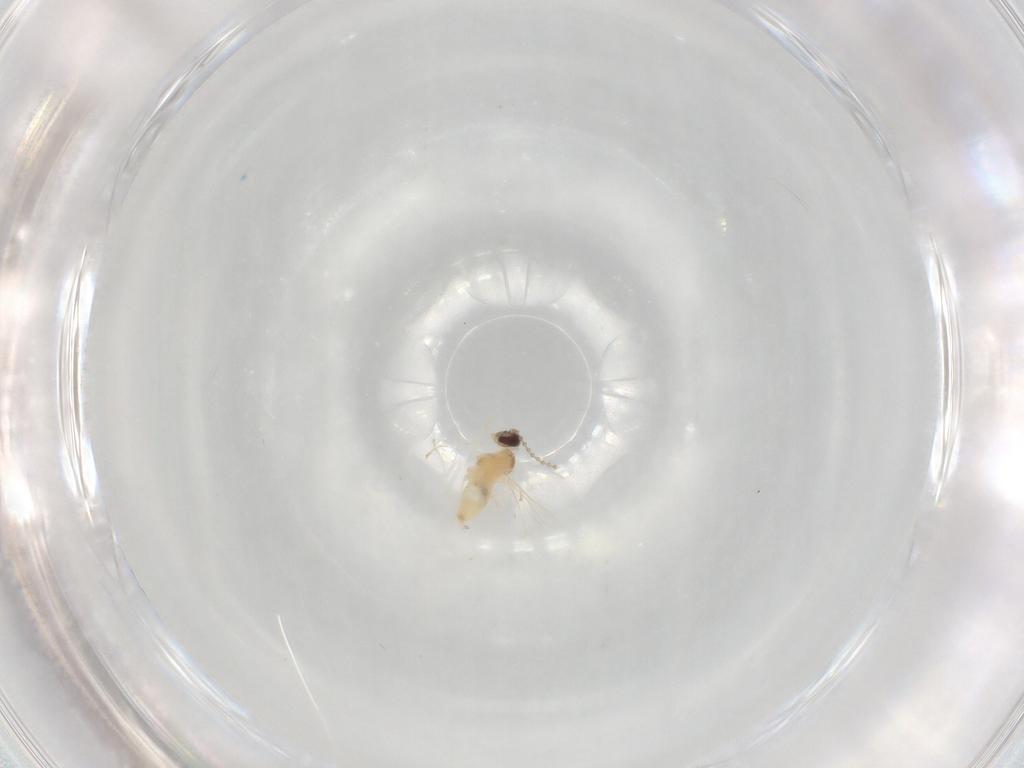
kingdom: Animalia
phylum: Arthropoda
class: Insecta
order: Diptera
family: Cecidomyiidae
